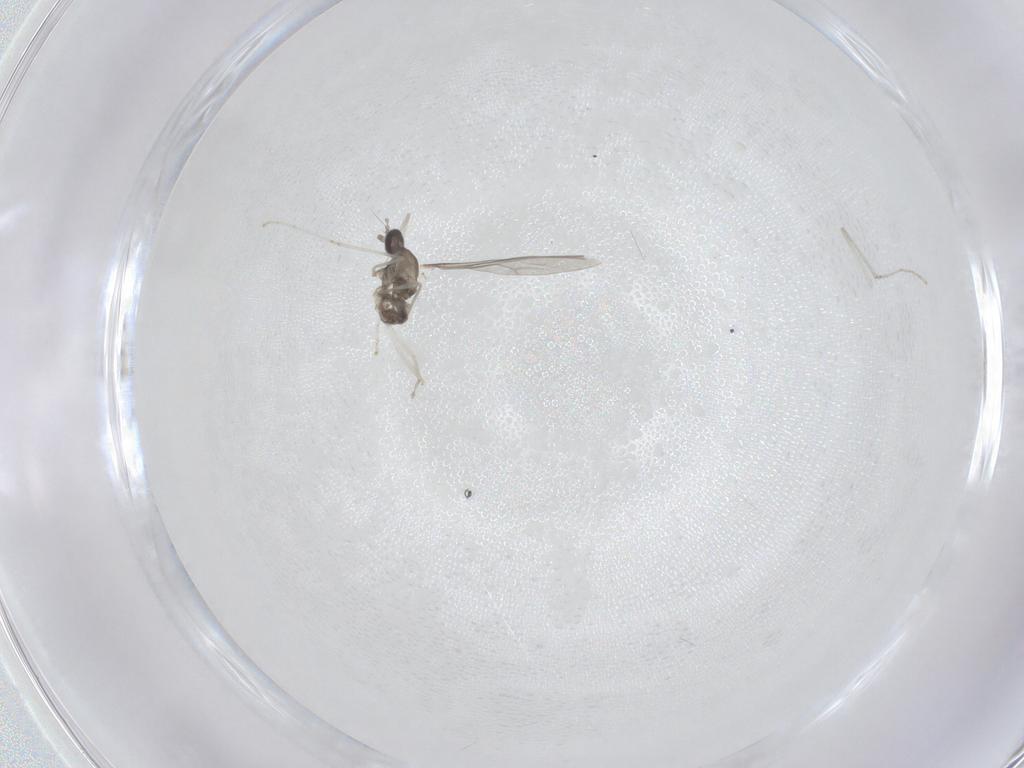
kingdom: Animalia
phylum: Arthropoda
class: Insecta
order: Diptera
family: Cecidomyiidae
